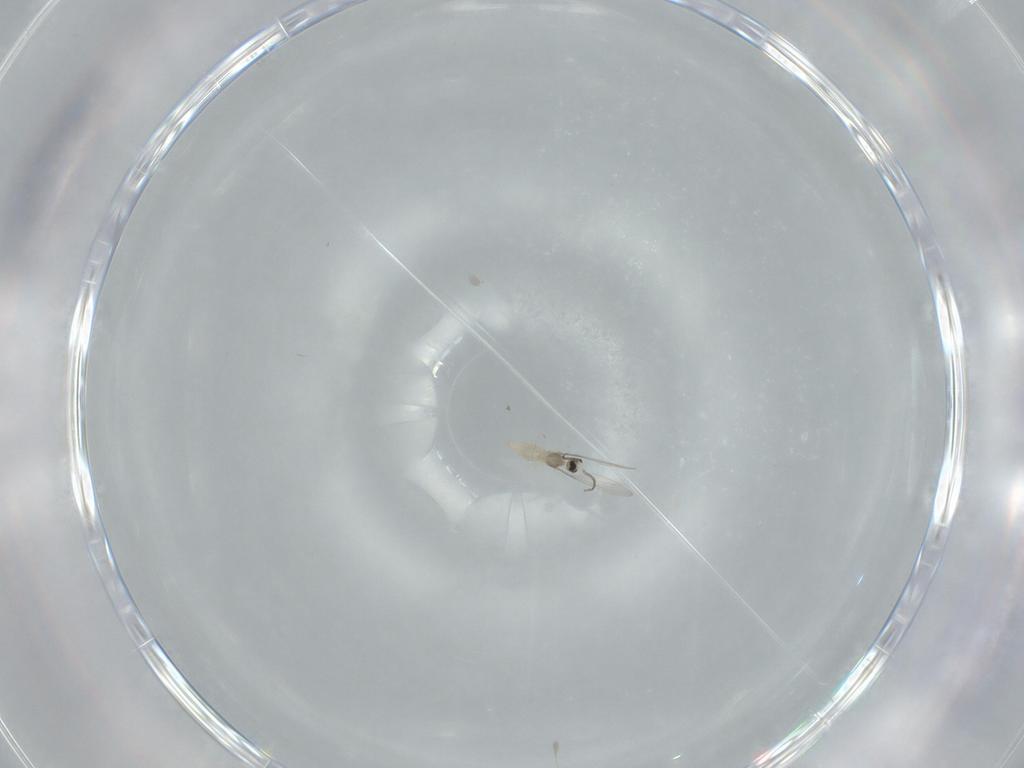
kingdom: Animalia
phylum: Arthropoda
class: Insecta
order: Diptera
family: Cecidomyiidae
